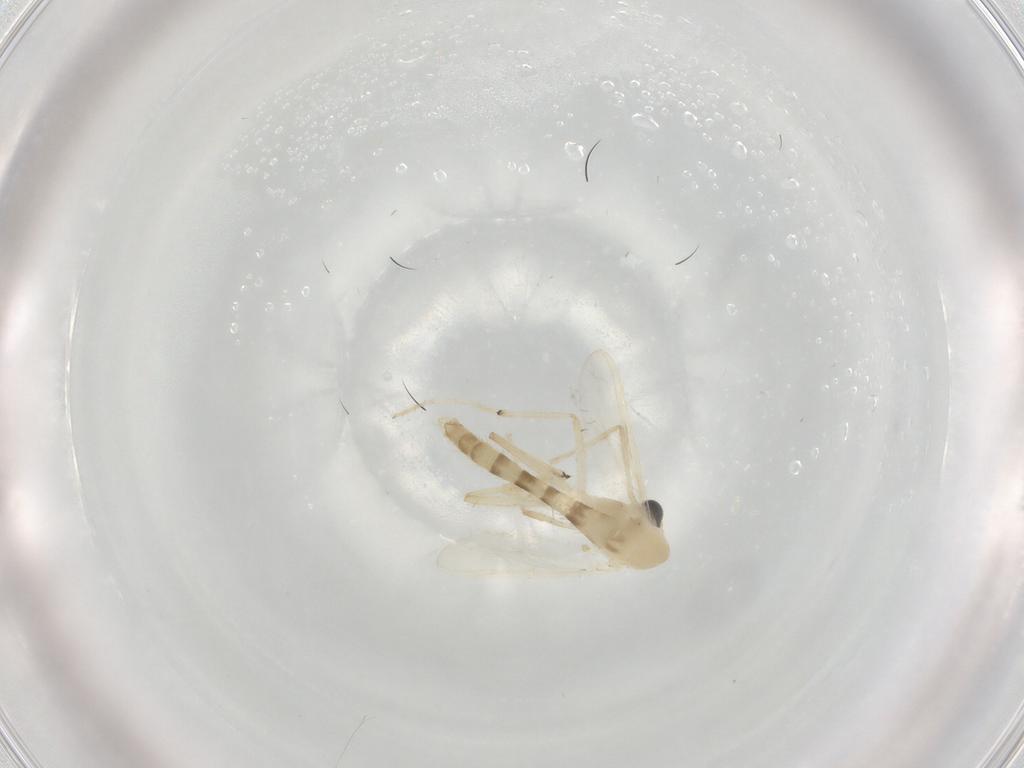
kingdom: Animalia
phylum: Arthropoda
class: Insecta
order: Diptera
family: Chironomidae
